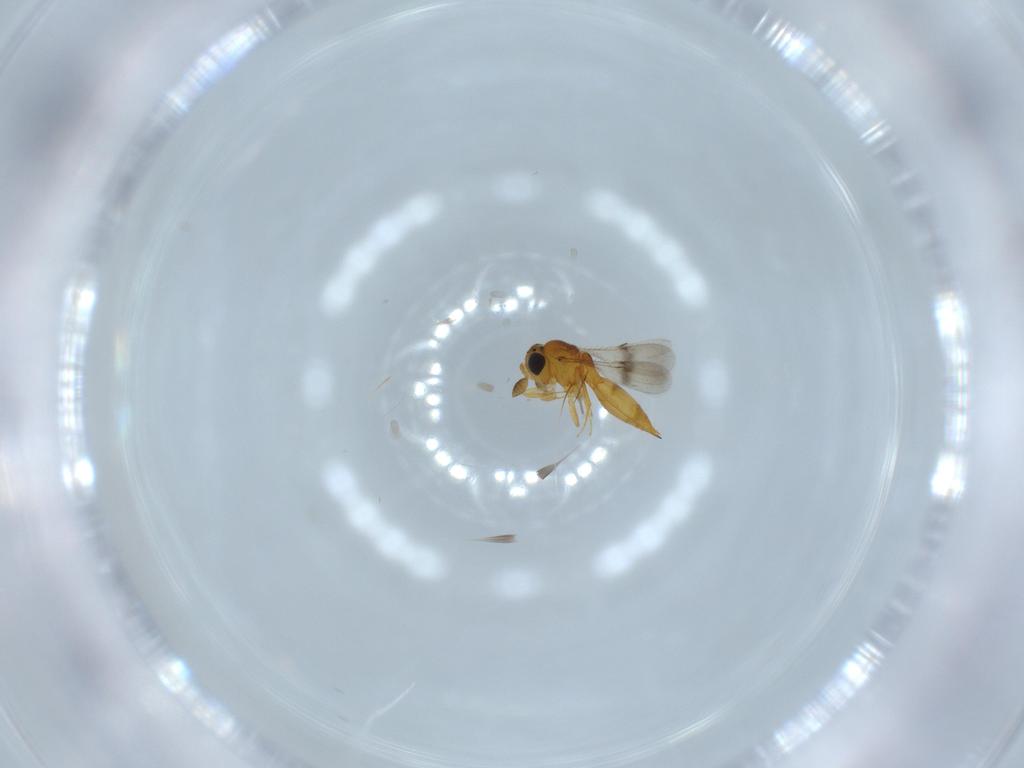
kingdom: Animalia
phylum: Arthropoda
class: Insecta
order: Hymenoptera
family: Scelionidae
